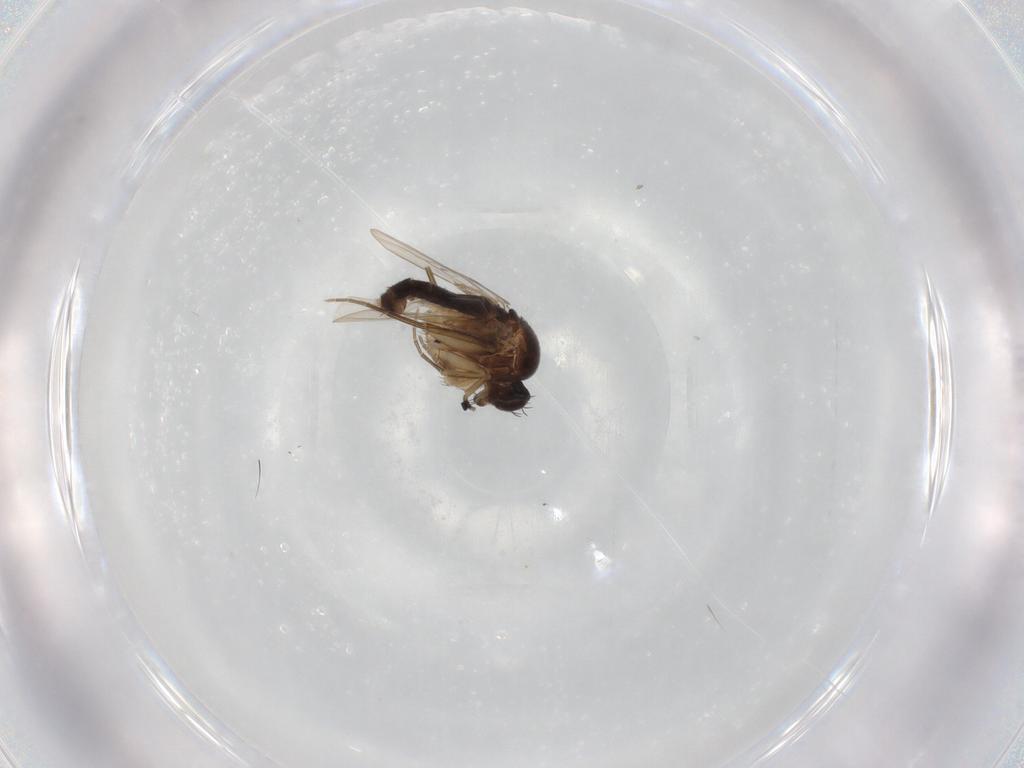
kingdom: Animalia
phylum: Arthropoda
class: Insecta
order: Diptera
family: Phoridae
